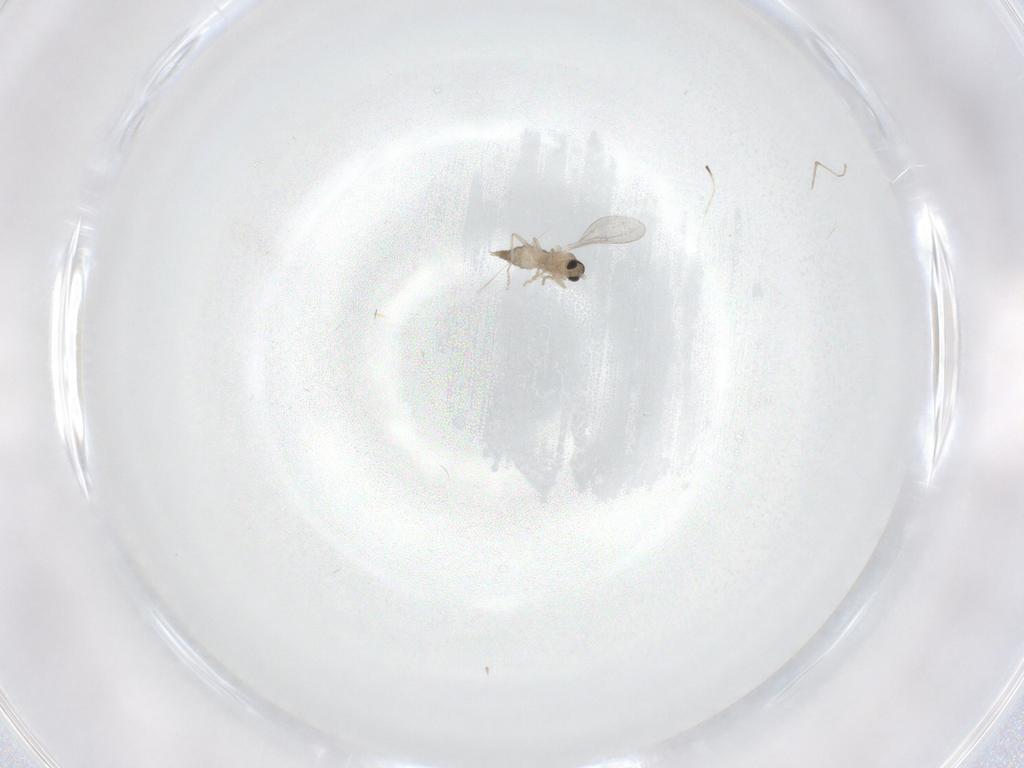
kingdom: Animalia
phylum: Arthropoda
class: Insecta
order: Diptera
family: Cecidomyiidae
